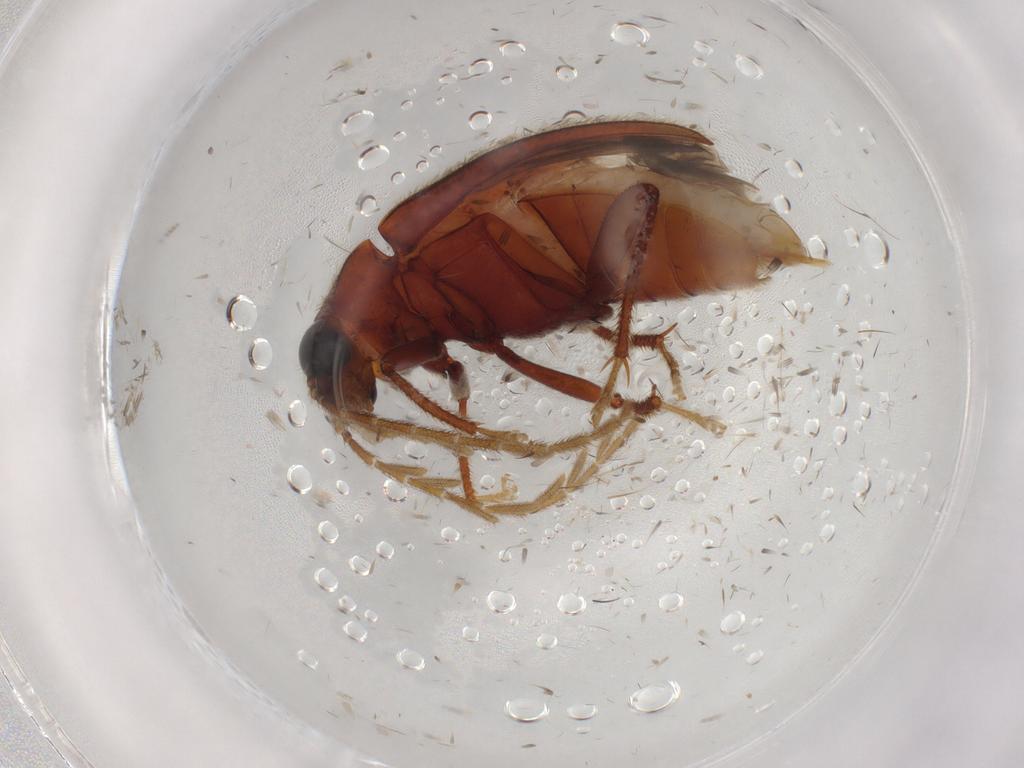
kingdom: Animalia
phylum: Arthropoda
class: Insecta
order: Coleoptera
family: Ptilodactylidae
